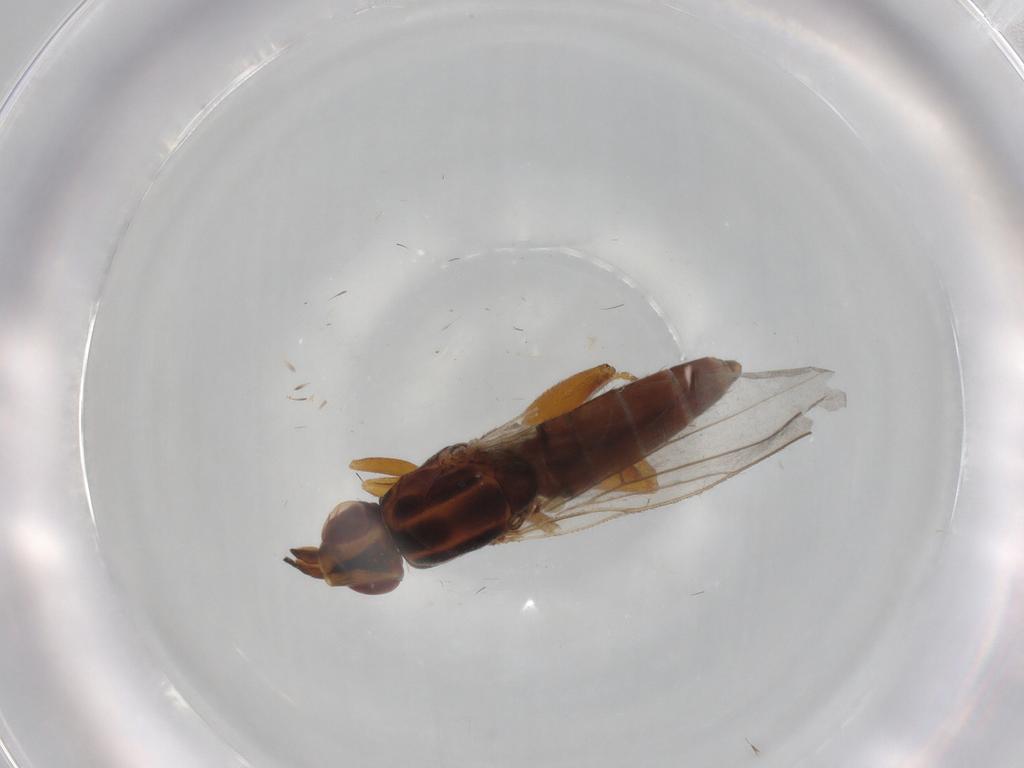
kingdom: Animalia
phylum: Arthropoda
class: Insecta
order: Diptera
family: Chloropidae
